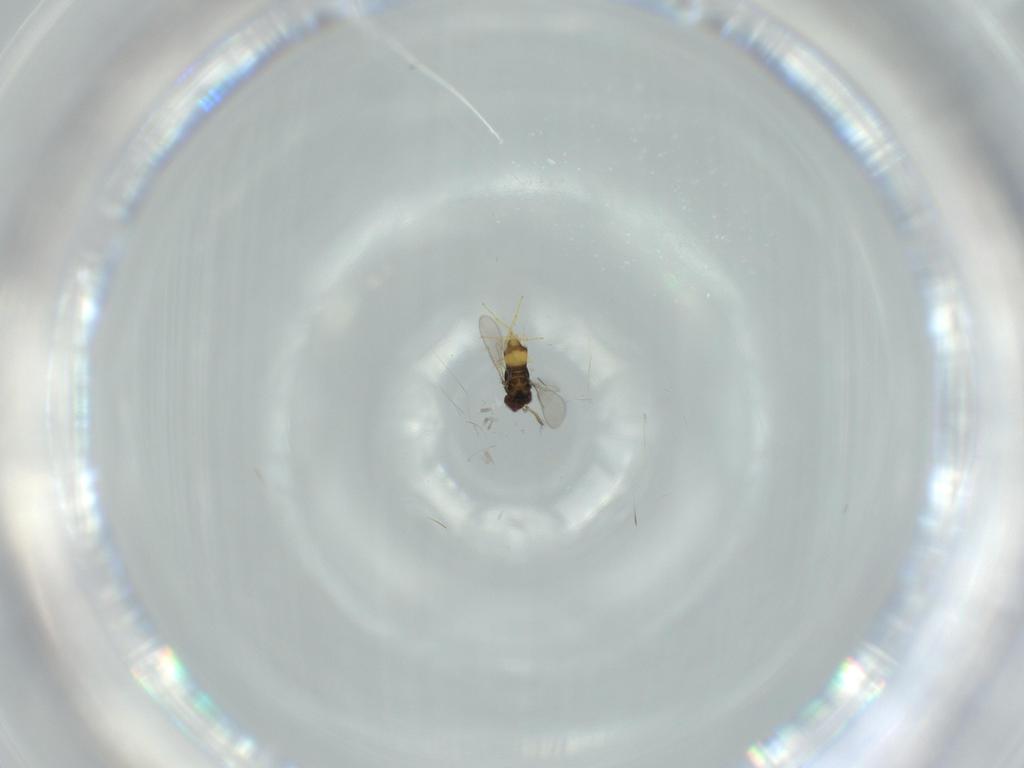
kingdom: Animalia
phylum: Arthropoda
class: Insecta
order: Hymenoptera
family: Aphelinidae
